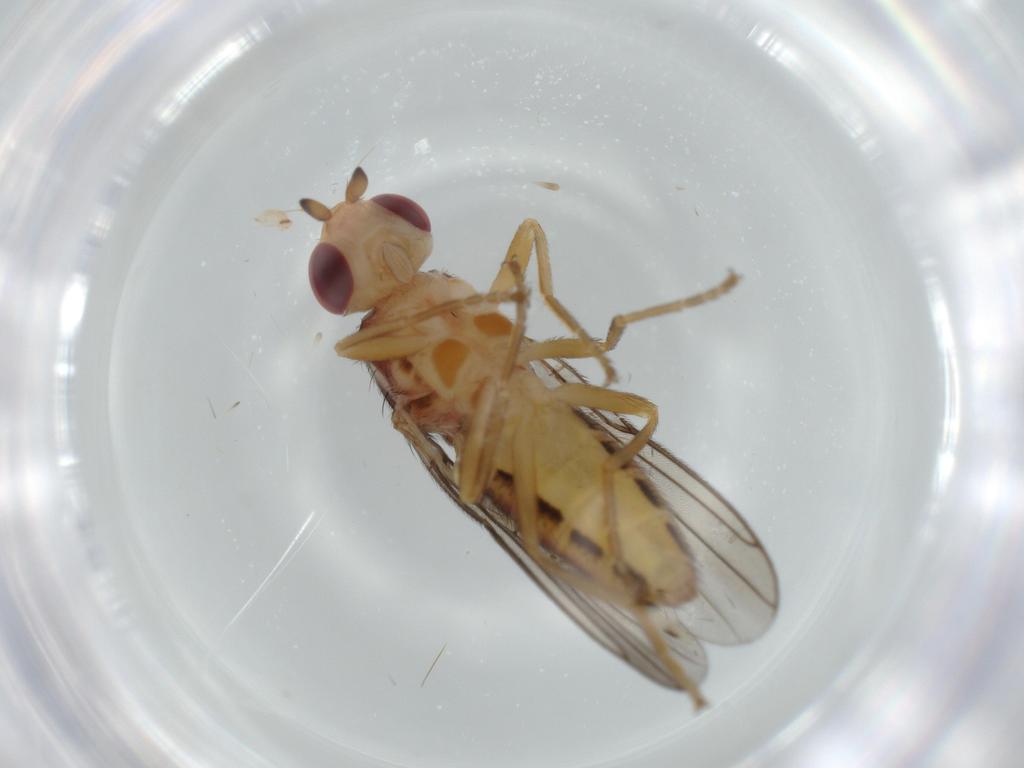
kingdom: Animalia
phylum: Arthropoda
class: Insecta
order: Diptera
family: Chloropidae
